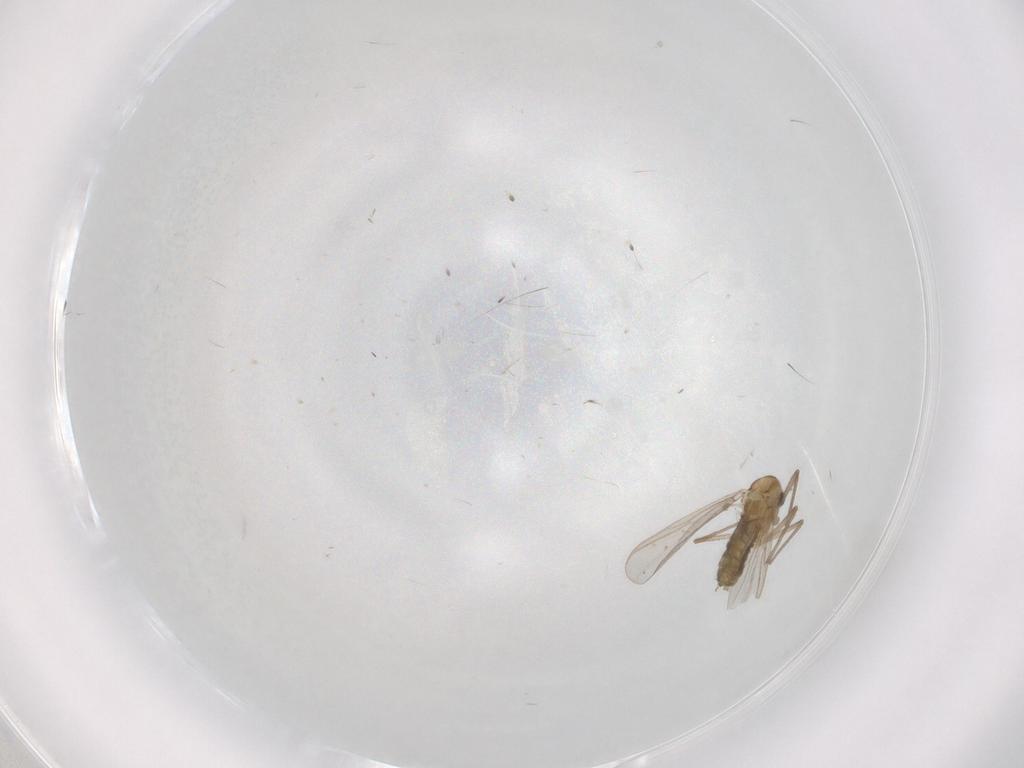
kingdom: Animalia
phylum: Arthropoda
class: Insecta
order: Diptera
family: Chironomidae
